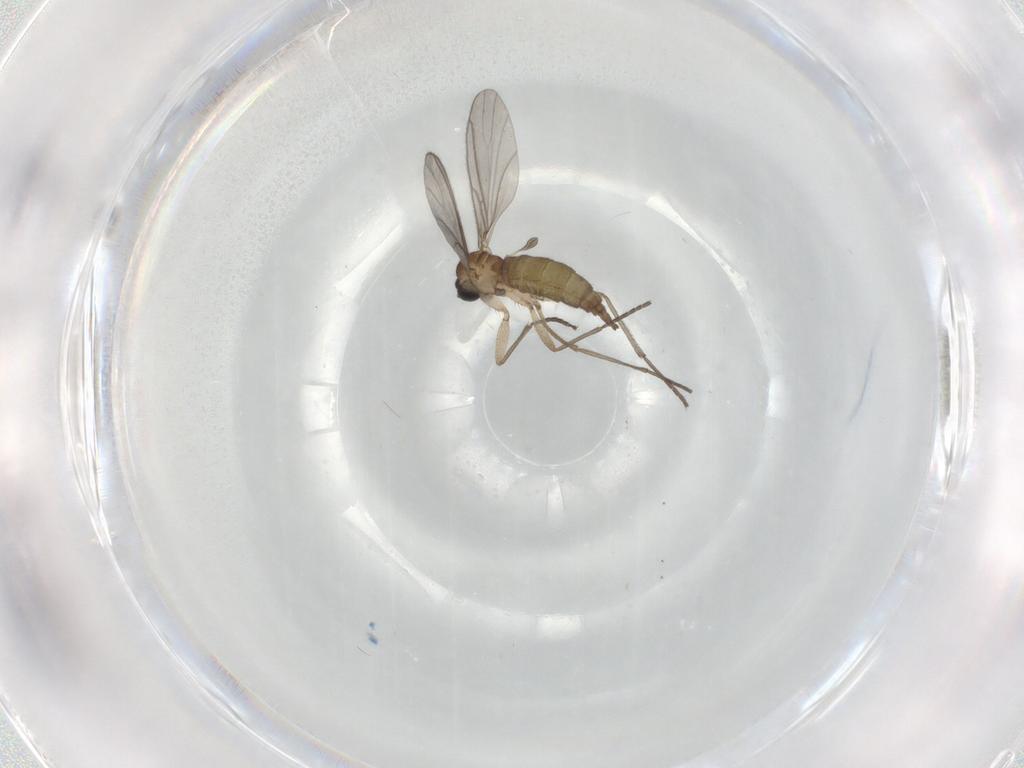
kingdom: Animalia
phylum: Arthropoda
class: Insecta
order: Diptera
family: Sciaridae
